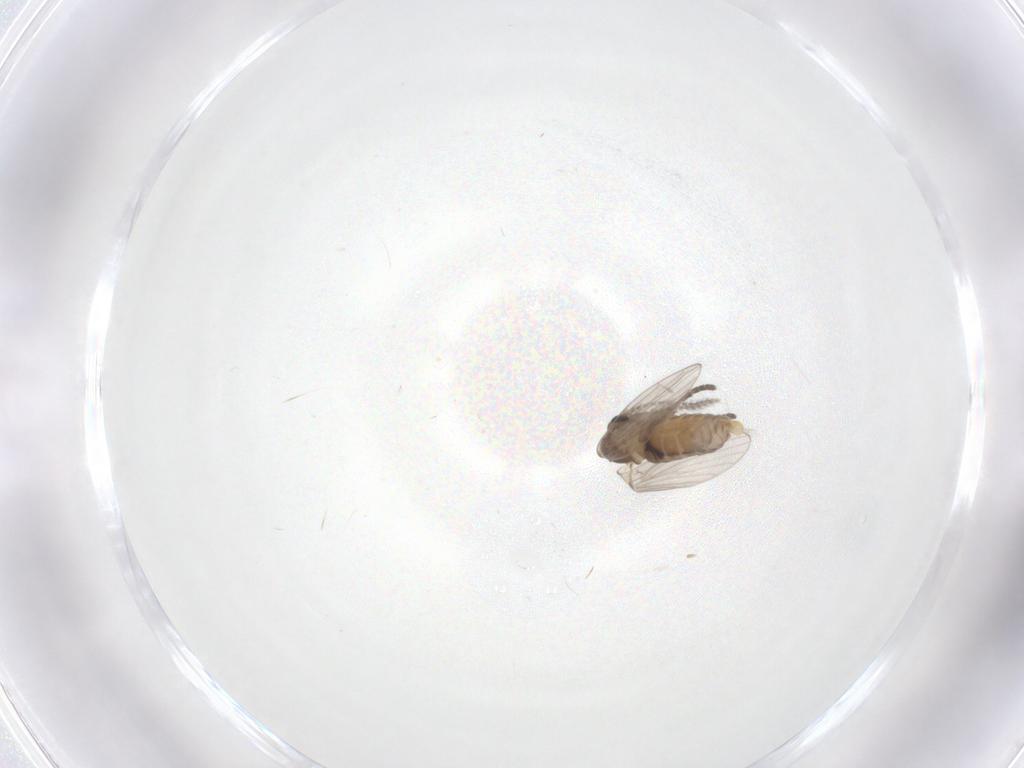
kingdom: Animalia
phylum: Arthropoda
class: Insecta
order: Diptera
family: Psychodidae
